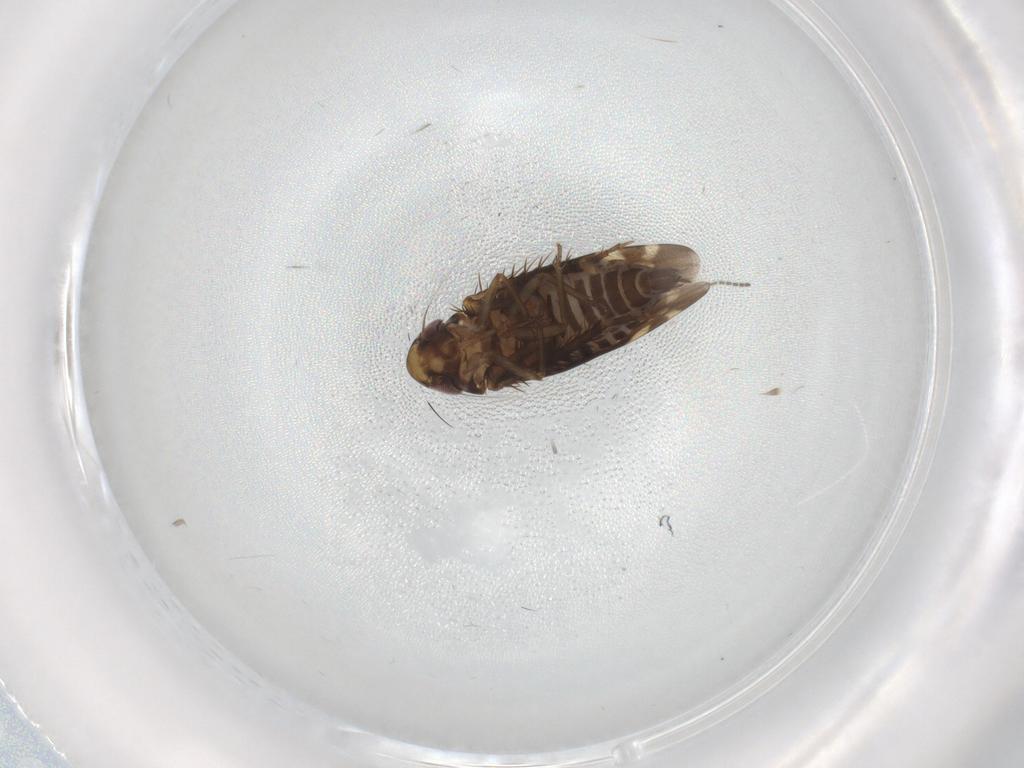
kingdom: Animalia
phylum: Arthropoda
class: Insecta
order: Hemiptera
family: Cicadellidae
